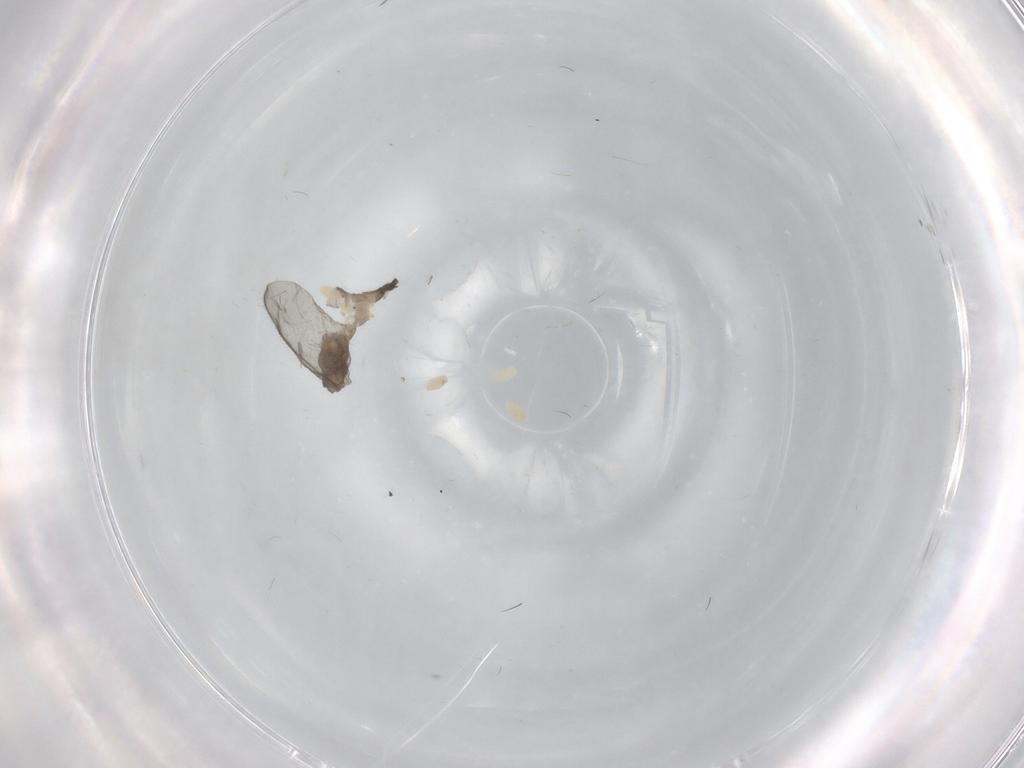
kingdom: Animalia
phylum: Arthropoda
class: Insecta
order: Diptera
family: Sciaridae
